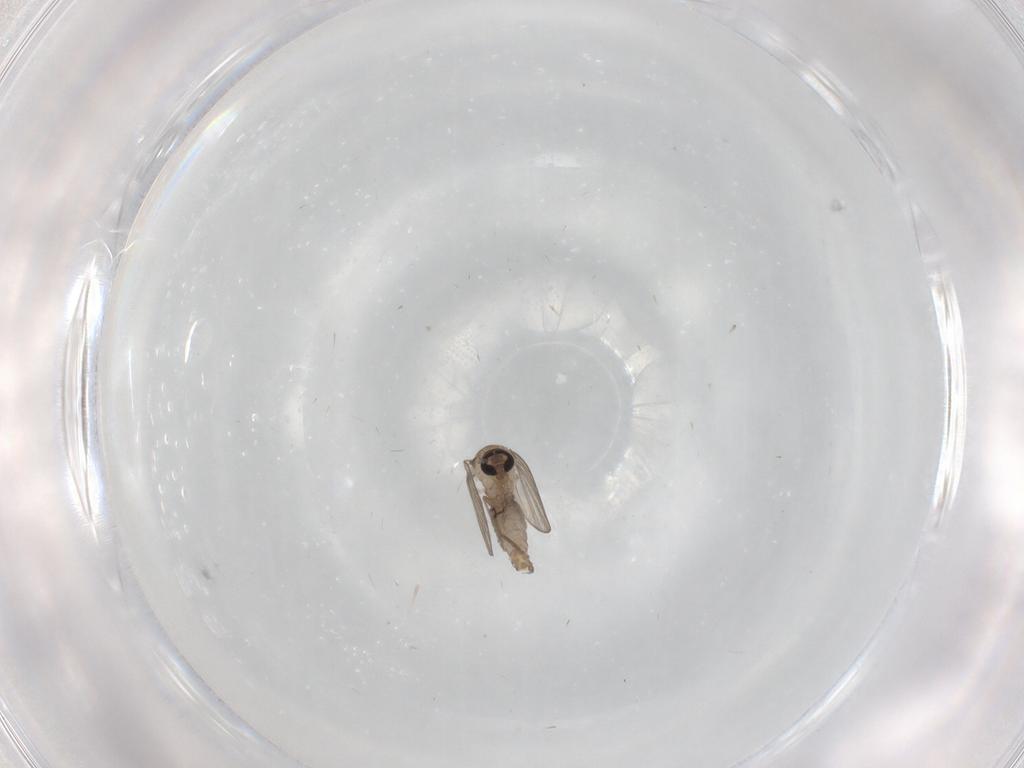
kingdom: Animalia
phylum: Arthropoda
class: Insecta
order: Diptera
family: Psychodidae
